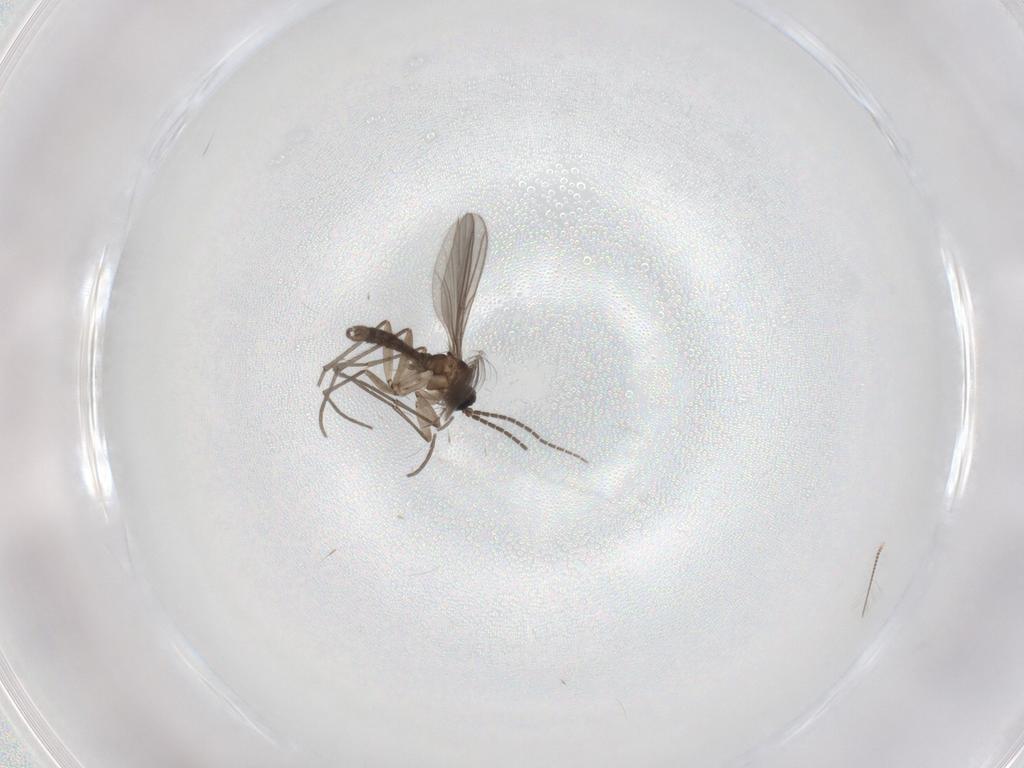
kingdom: Animalia
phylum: Arthropoda
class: Insecta
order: Diptera
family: Sciaridae
